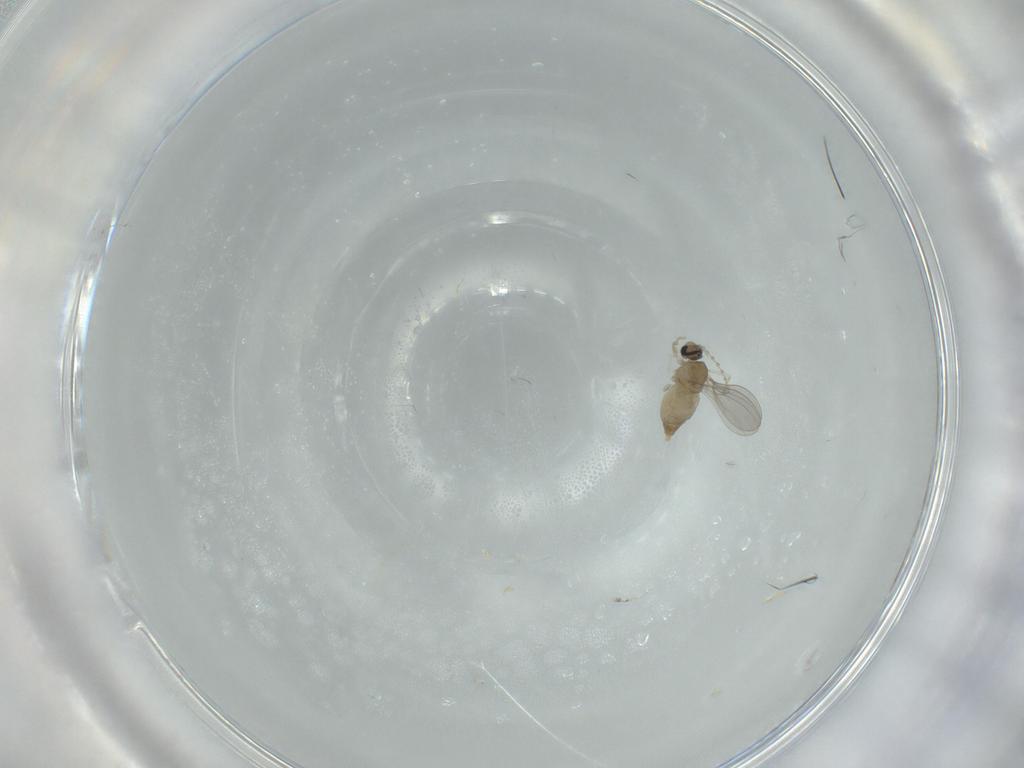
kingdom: Animalia
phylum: Arthropoda
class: Insecta
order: Diptera
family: Cecidomyiidae
